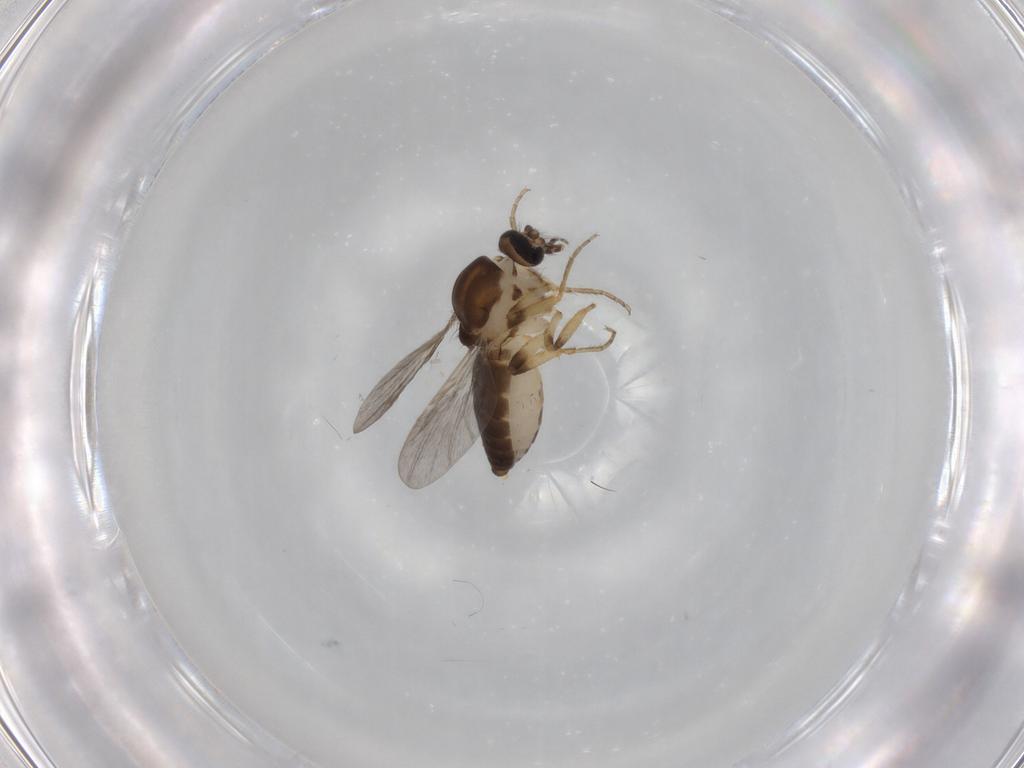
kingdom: Animalia
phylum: Arthropoda
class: Insecta
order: Diptera
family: Ceratopogonidae
